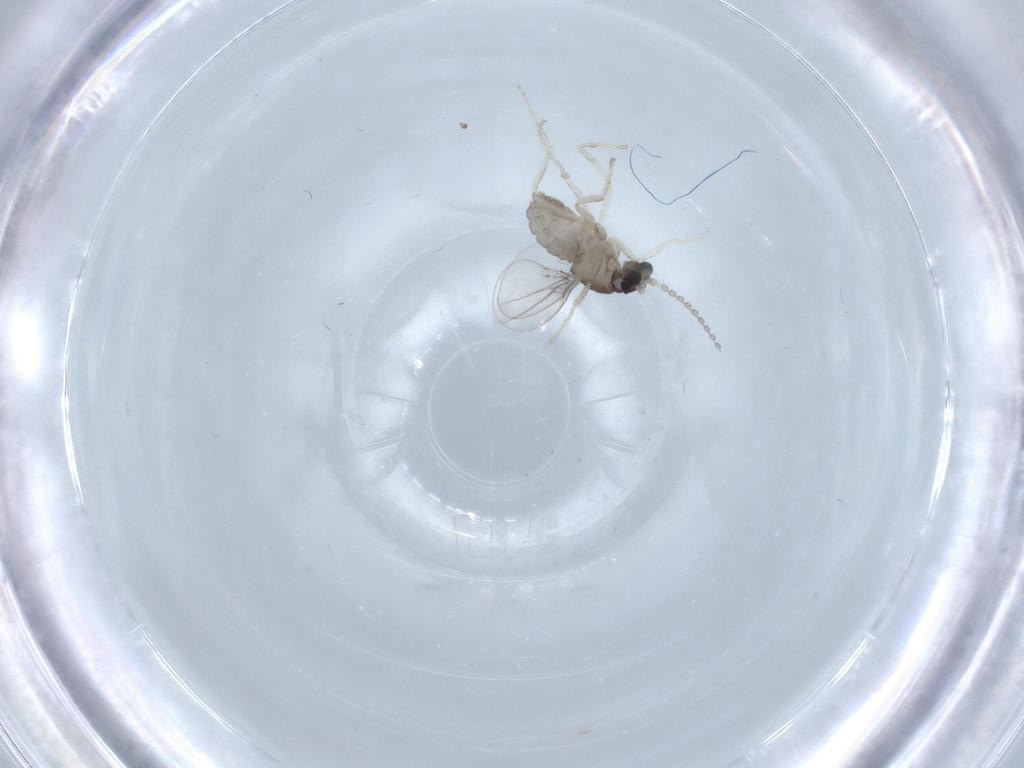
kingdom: Animalia
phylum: Arthropoda
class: Insecta
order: Diptera
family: Cecidomyiidae
